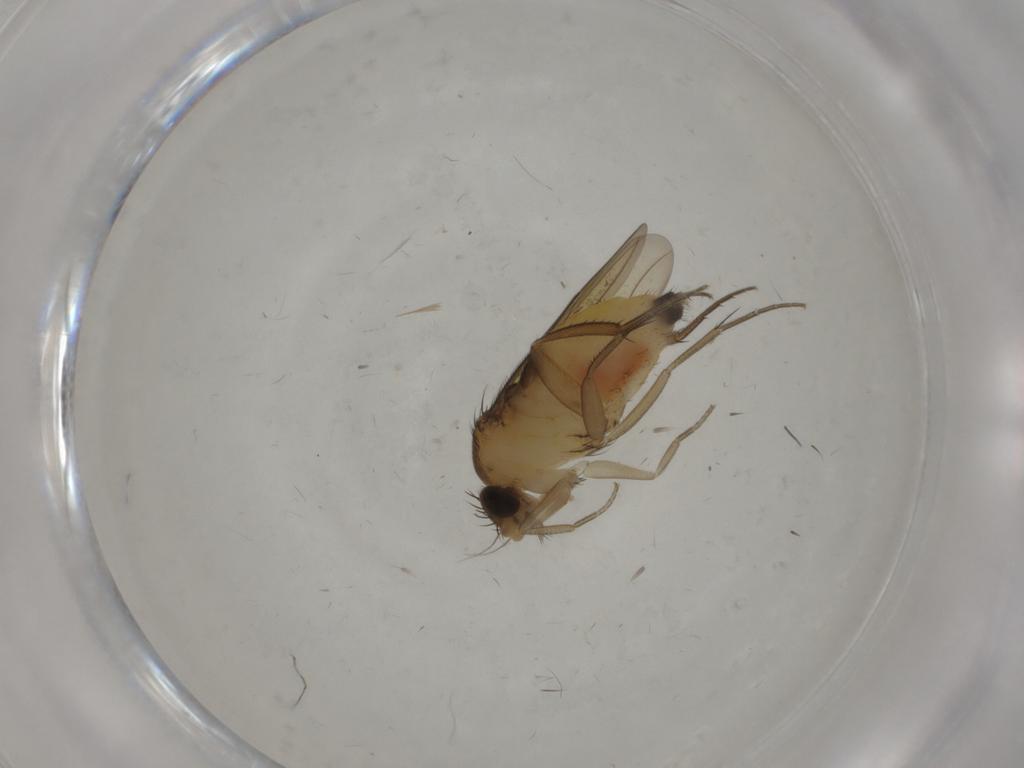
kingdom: Animalia
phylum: Arthropoda
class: Insecta
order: Diptera
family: Cecidomyiidae
